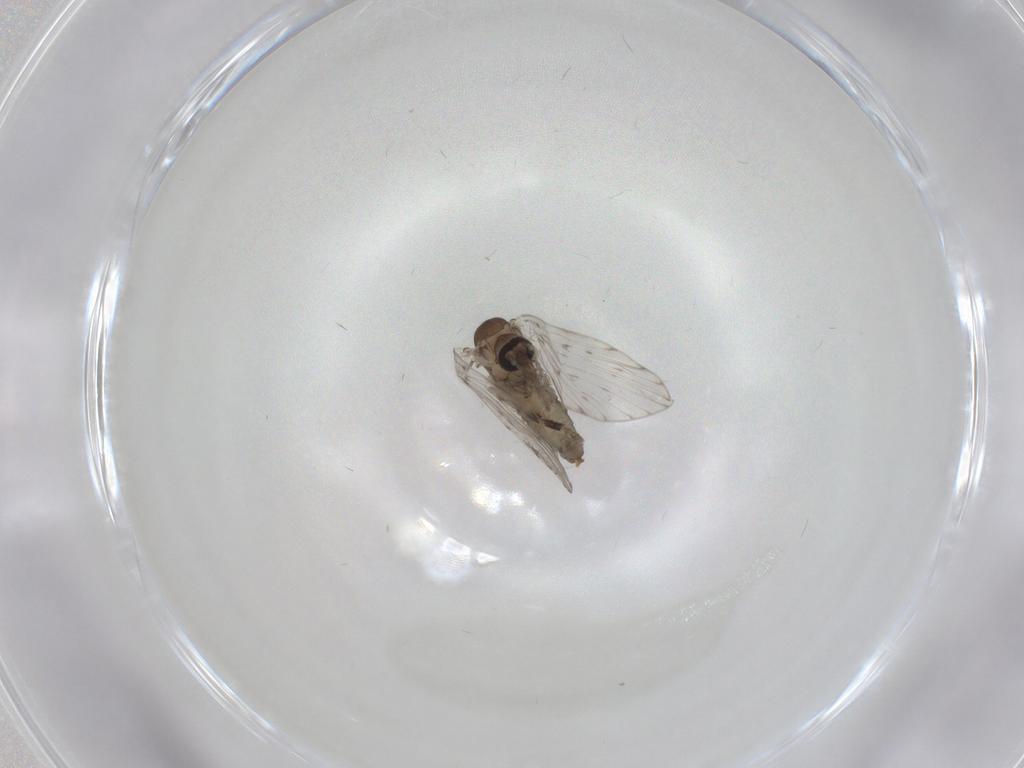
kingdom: Animalia
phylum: Arthropoda
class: Insecta
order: Diptera
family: Psychodidae
